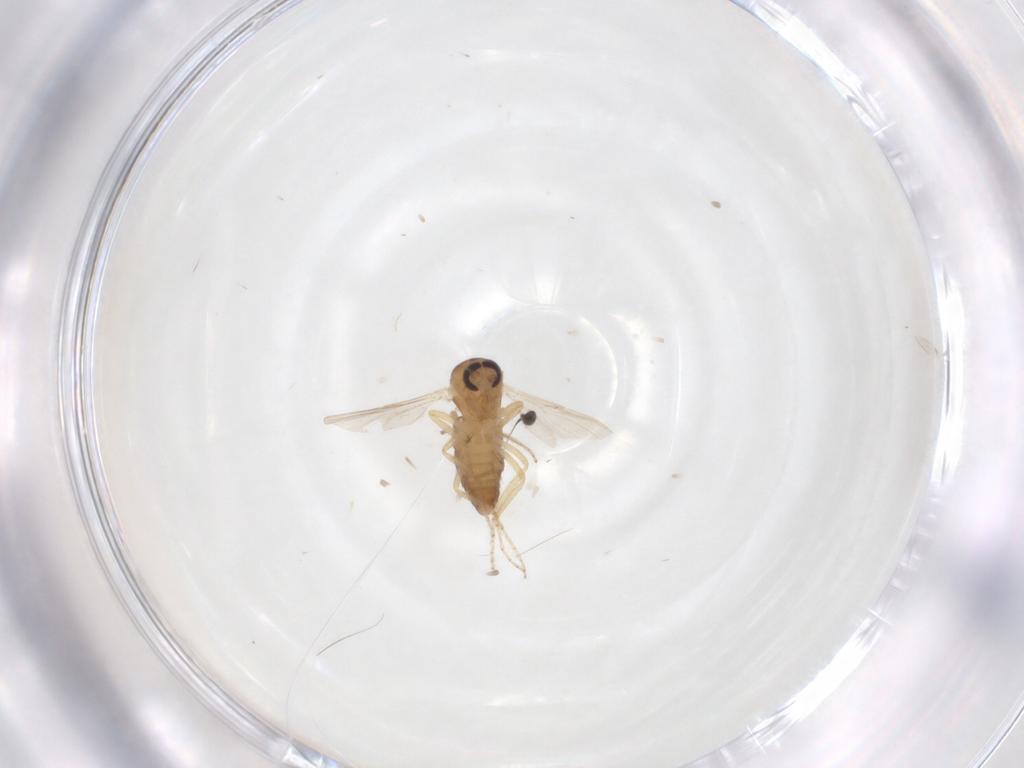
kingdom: Animalia
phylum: Arthropoda
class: Insecta
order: Diptera
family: Ceratopogonidae
